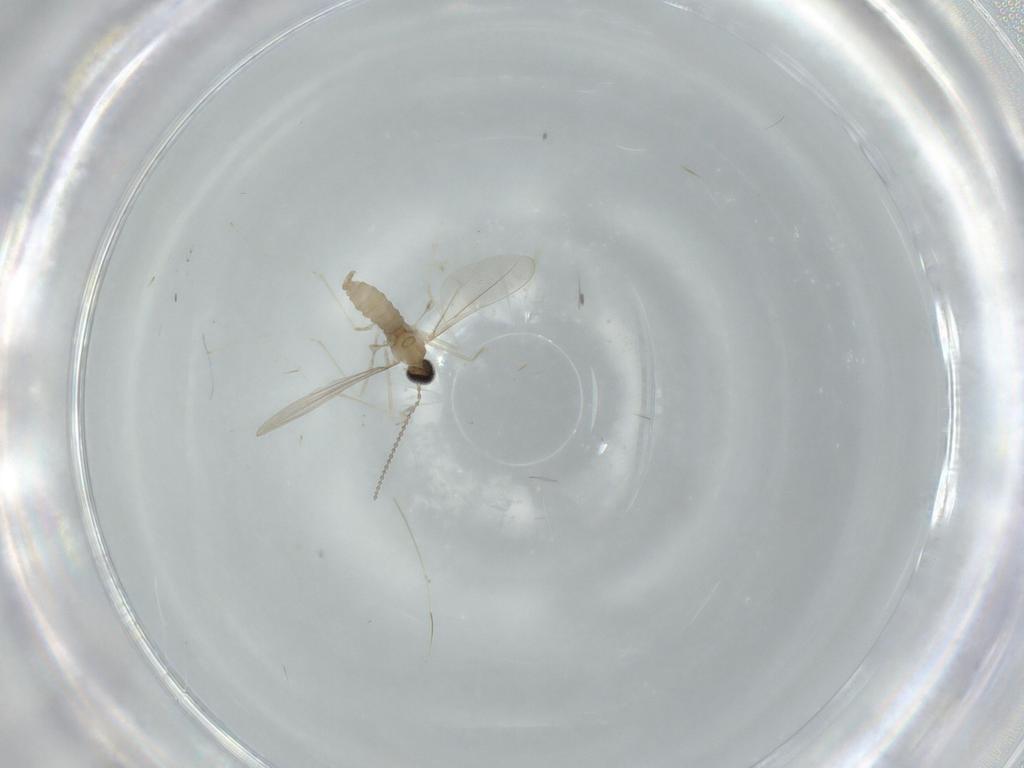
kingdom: Animalia
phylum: Arthropoda
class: Insecta
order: Diptera
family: Cecidomyiidae
